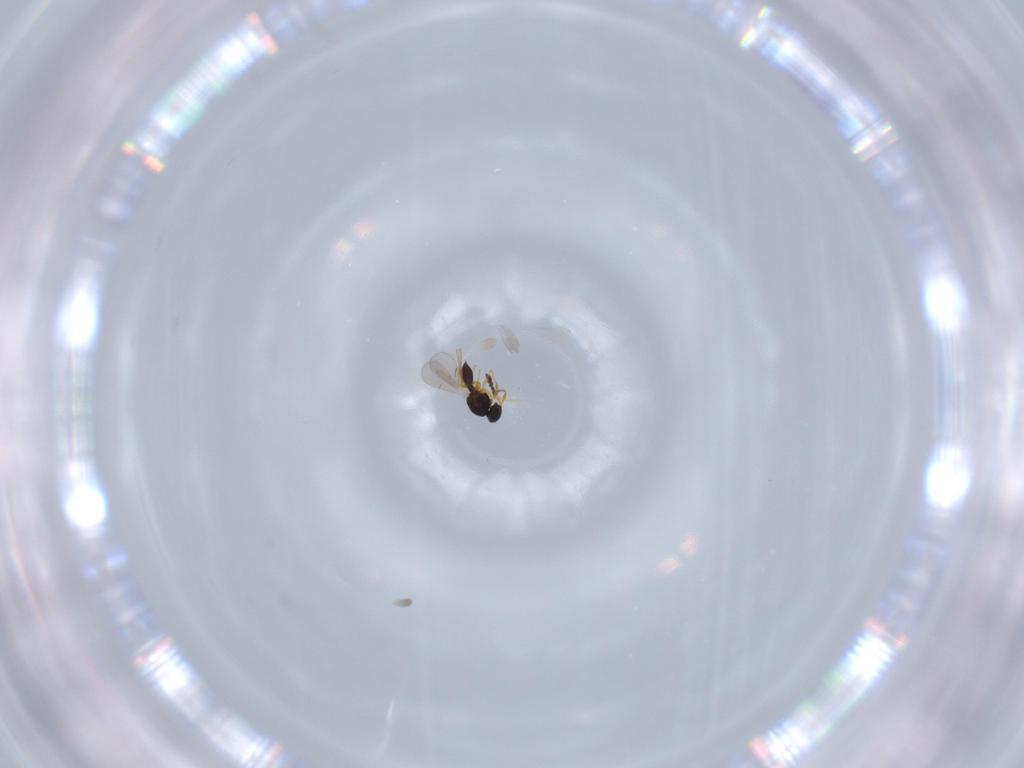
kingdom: Animalia
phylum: Arthropoda
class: Insecta
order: Hymenoptera
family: Platygastridae
